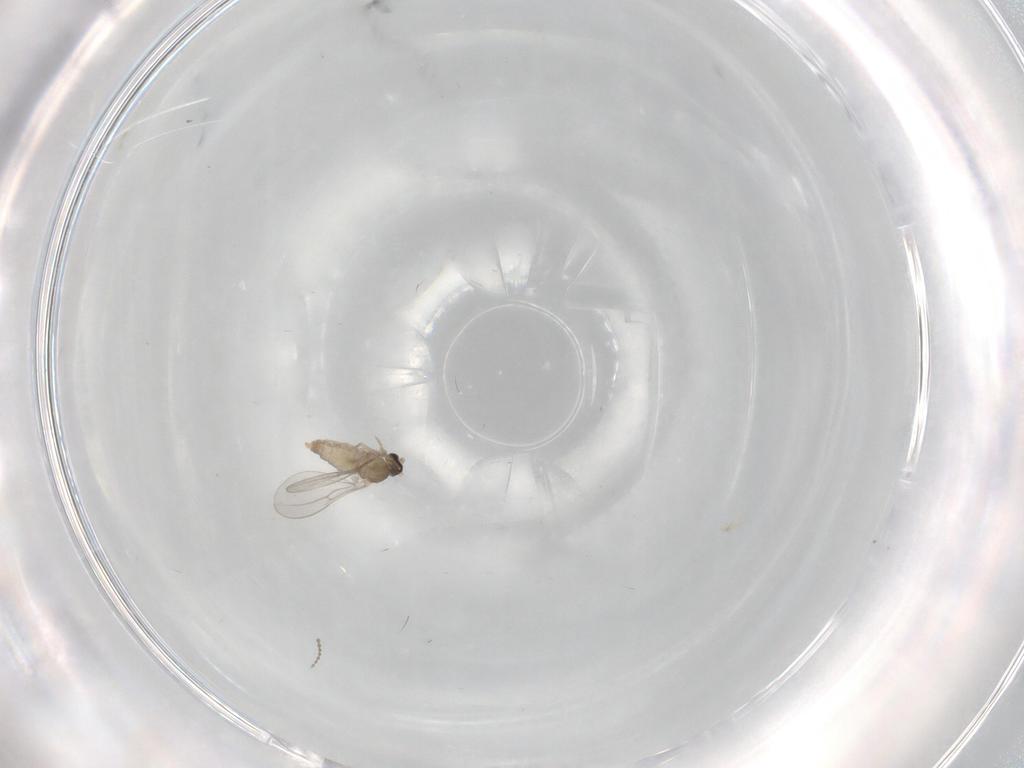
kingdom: Animalia
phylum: Arthropoda
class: Insecta
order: Diptera
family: Cecidomyiidae
